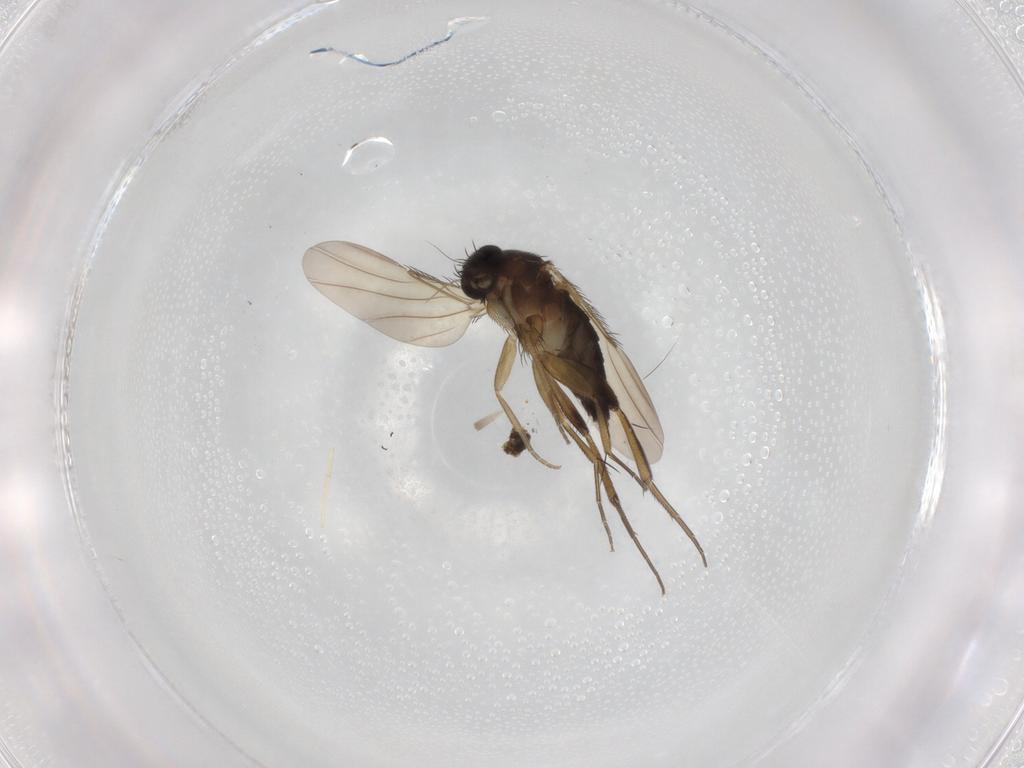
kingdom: Animalia
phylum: Arthropoda
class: Insecta
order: Diptera
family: Phoridae
